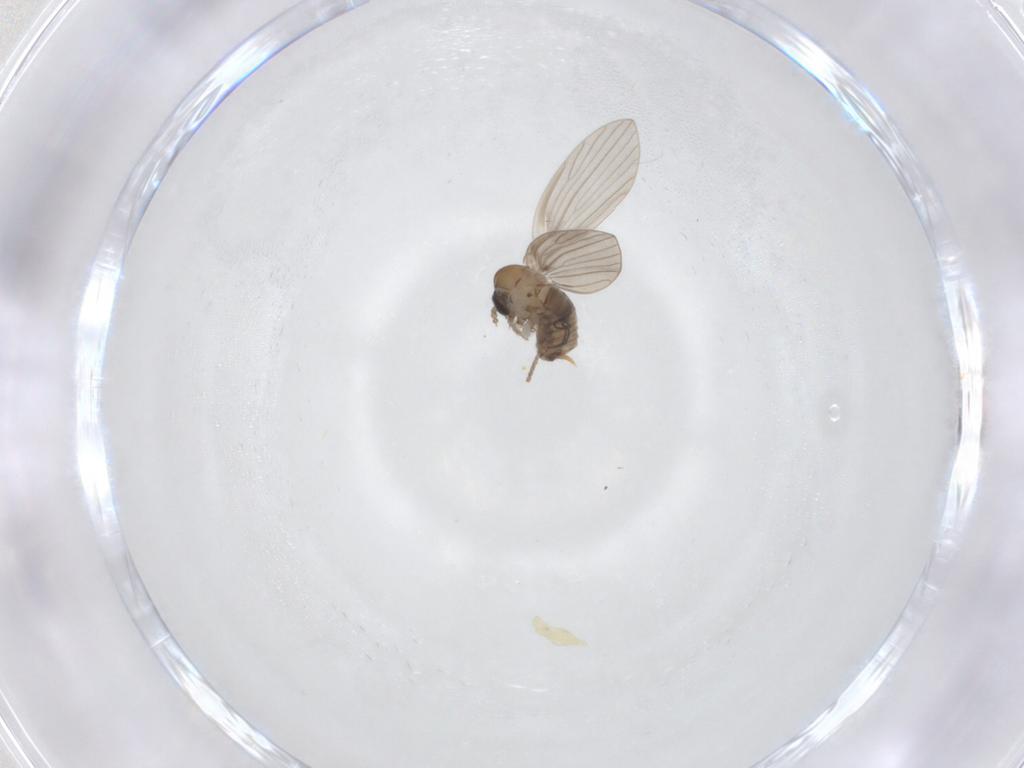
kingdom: Animalia
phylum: Arthropoda
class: Insecta
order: Diptera
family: Psychodidae
